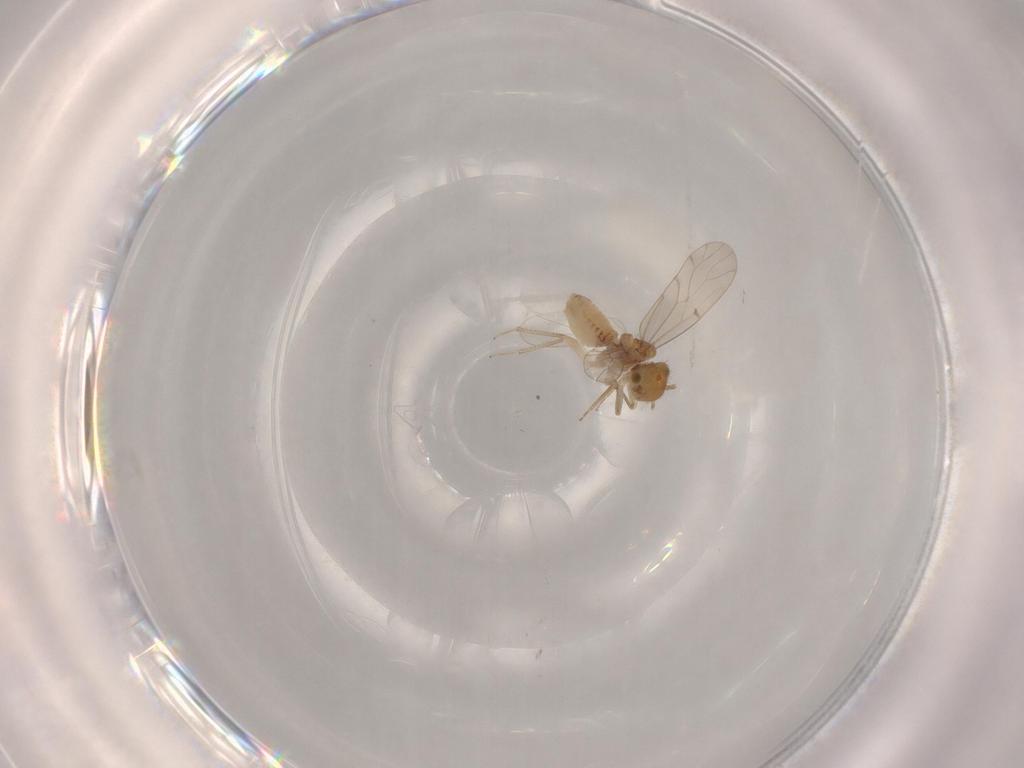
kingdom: Animalia
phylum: Arthropoda
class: Insecta
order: Psocodea
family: Ectopsocidae
